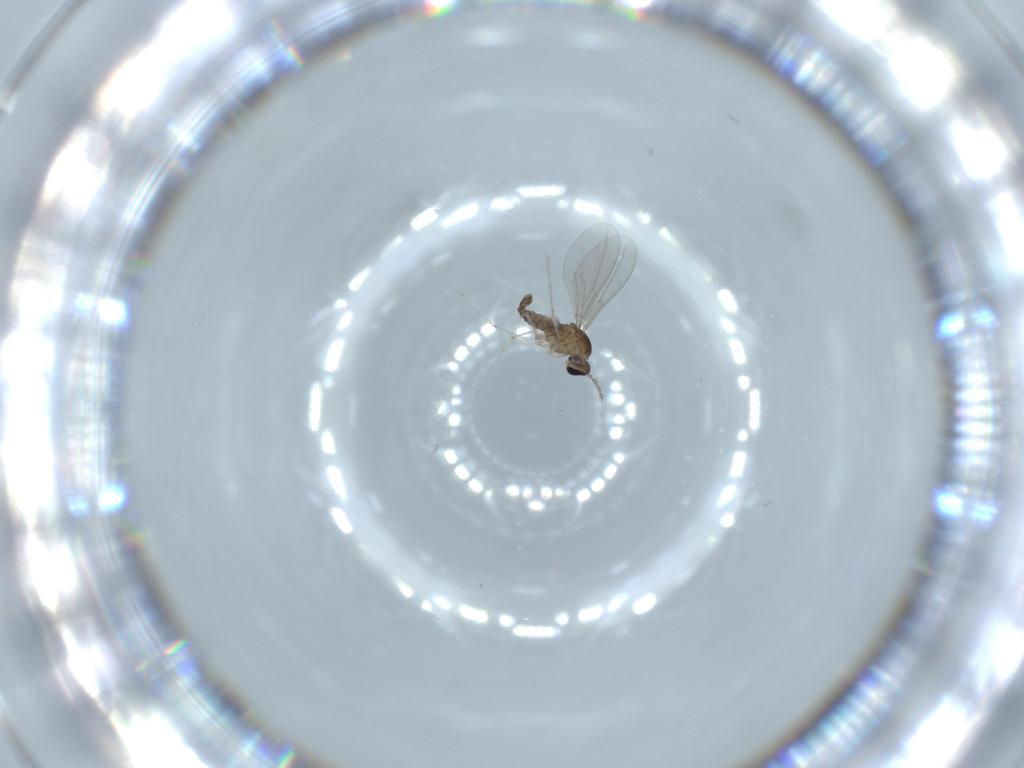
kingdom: Animalia
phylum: Arthropoda
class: Insecta
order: Diptera
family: Cecidomyiidae
